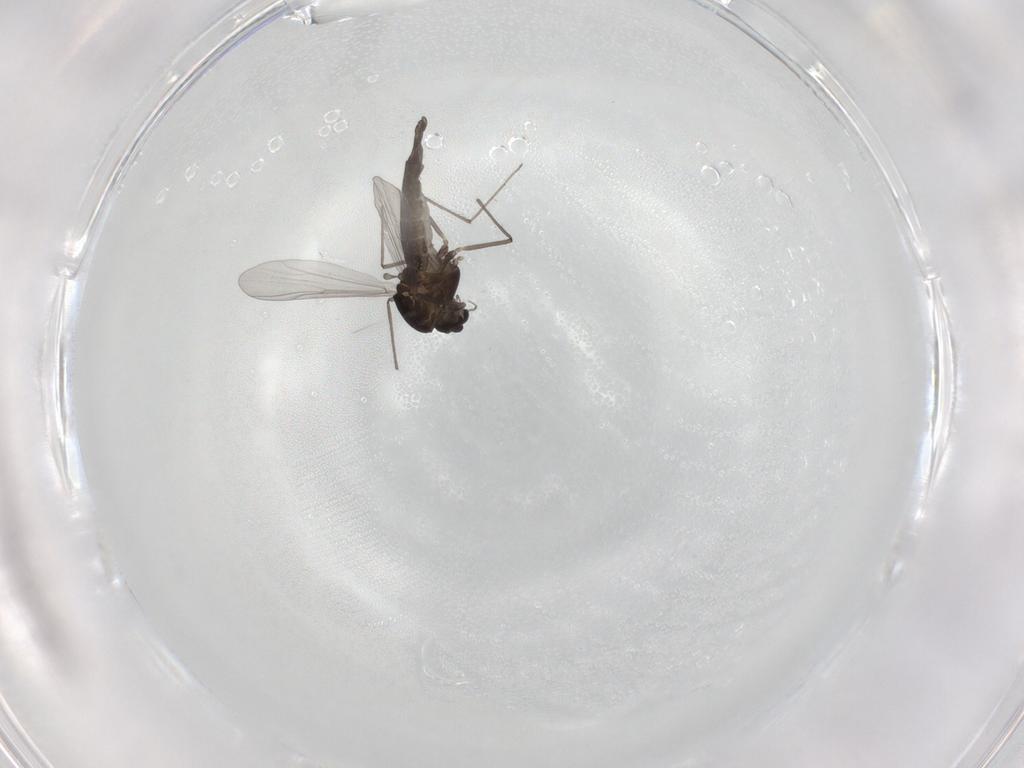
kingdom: Animalia
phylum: Arthropoda
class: Insecta
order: Diptera
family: Chironomidae
